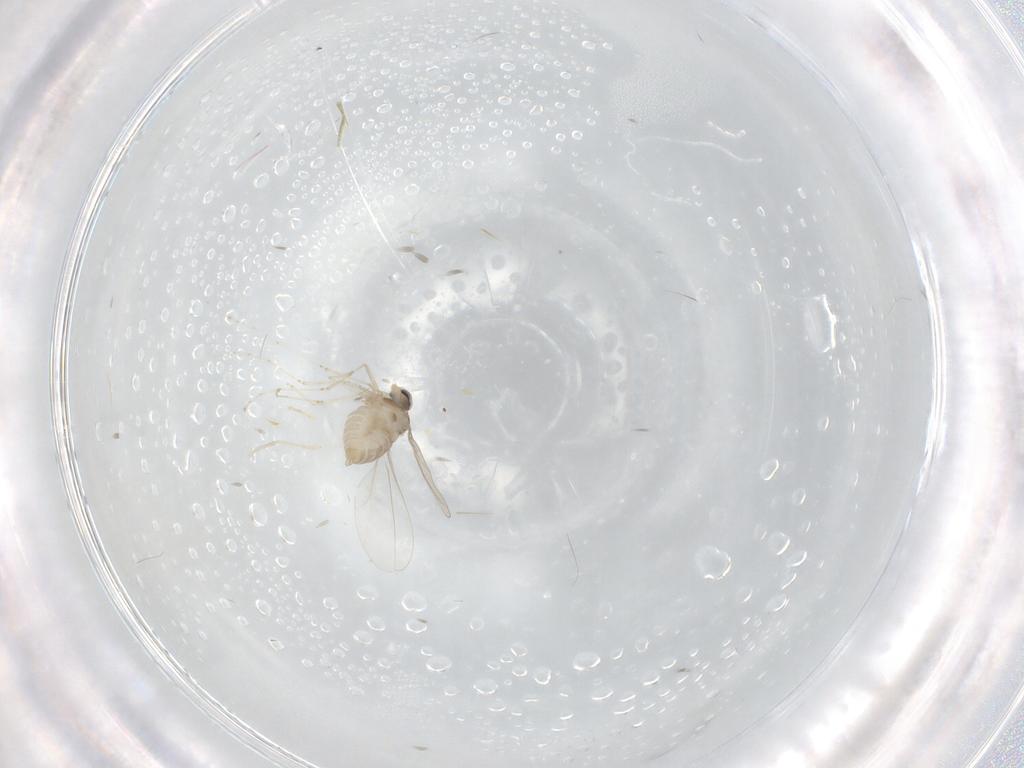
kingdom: Animalia
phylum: Arthropoda
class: Insecta
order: Diptera
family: Cecidomyiidae
